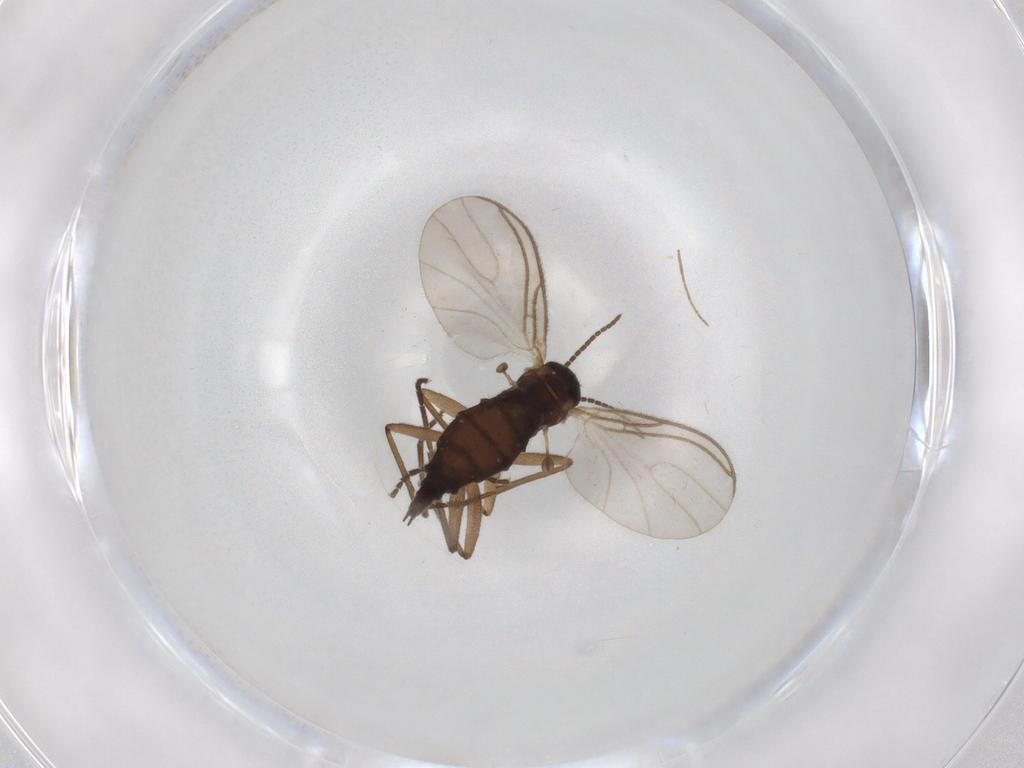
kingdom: Animalia
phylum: Arthropoda
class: Insecta
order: Diptera
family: Sciaridae
